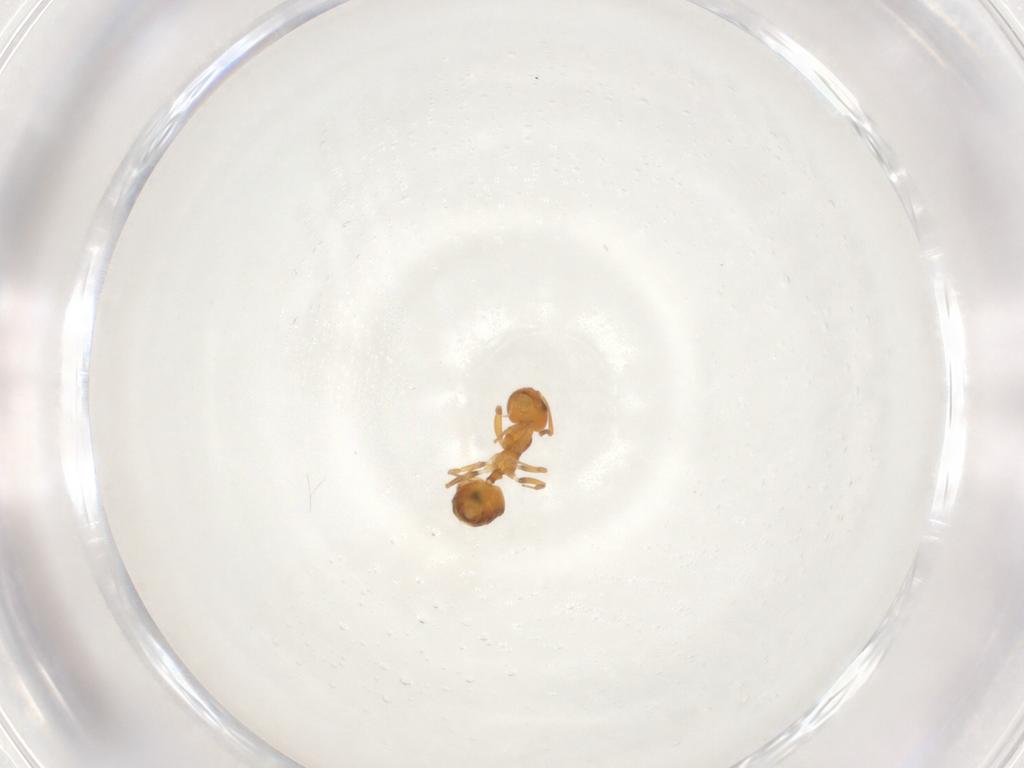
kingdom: Animalia
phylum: Arthropoda
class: Insecta
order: Hymenoptera
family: Formicidae
